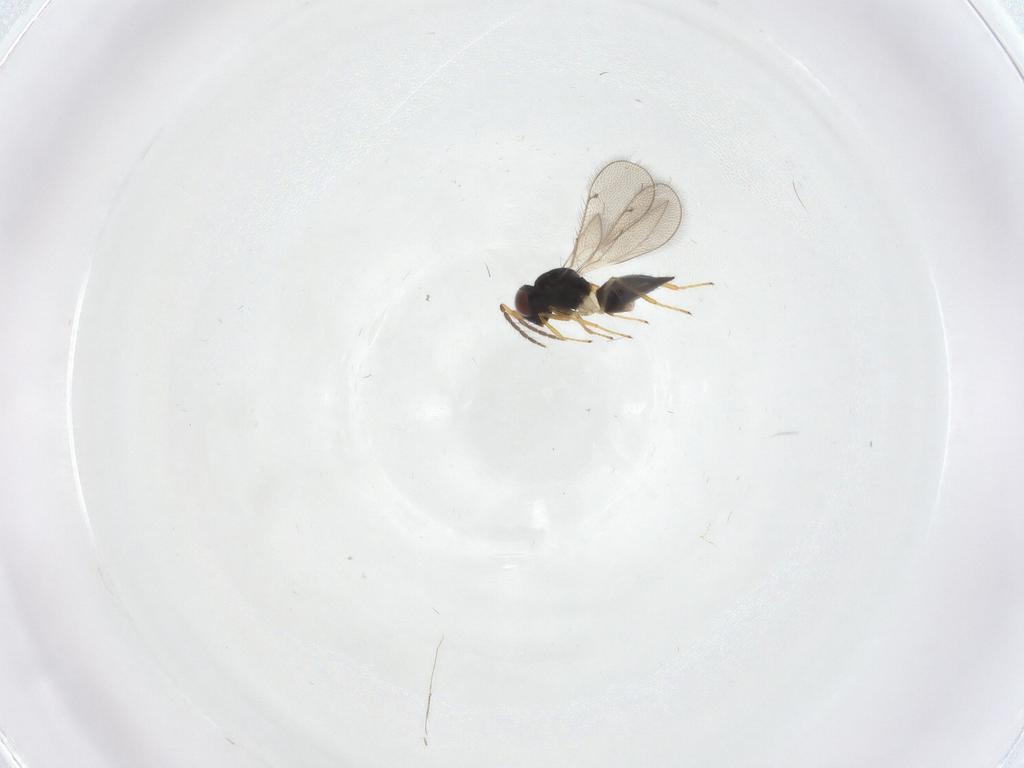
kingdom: Animalia
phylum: Arthropoda
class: Insecta
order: Hymenoptera
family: Eulophidae
